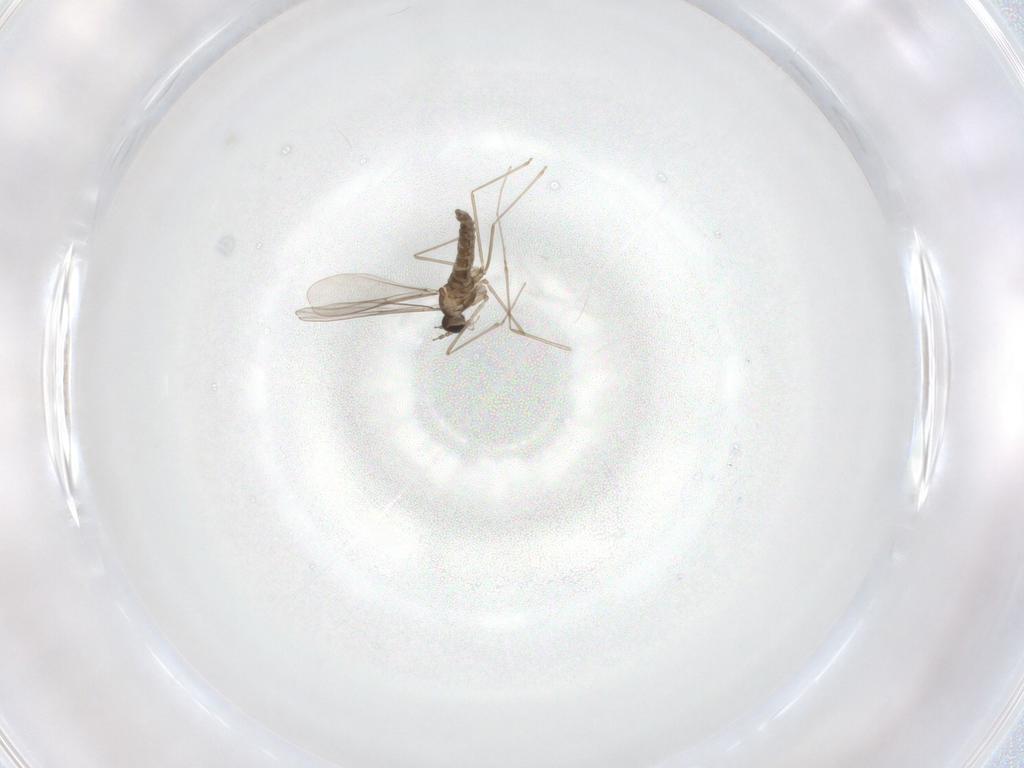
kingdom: Animalia
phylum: Arthropoda
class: Insecta
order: Diptera
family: Cecidomyiidae
